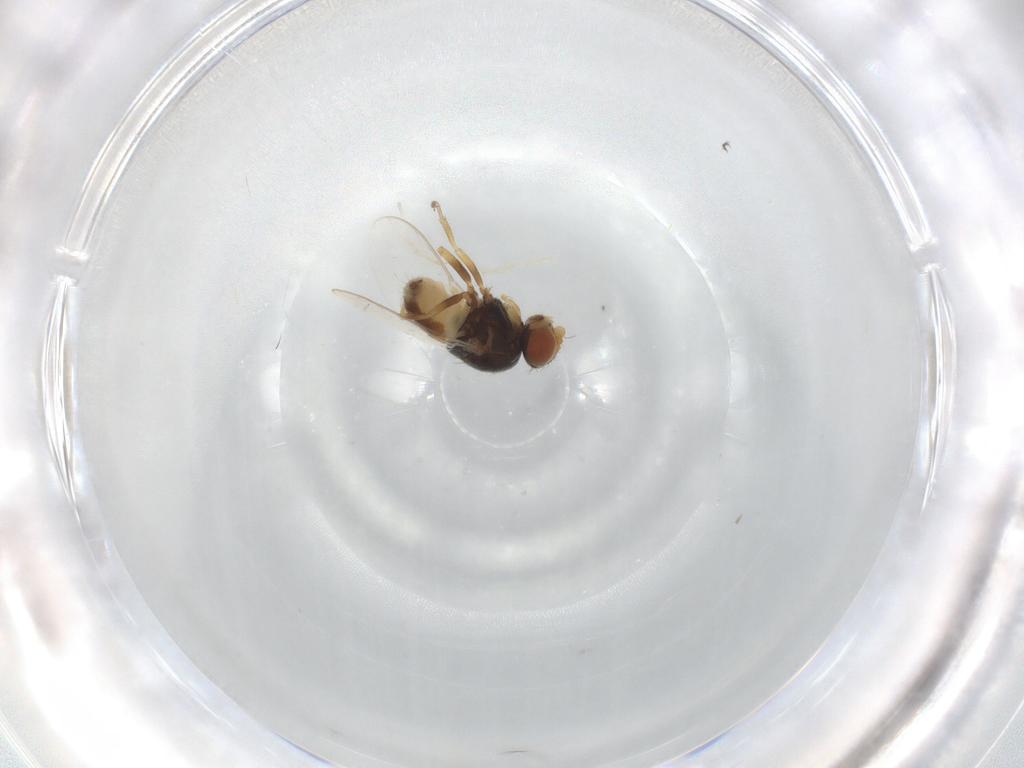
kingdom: Animalia
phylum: Arthropoda
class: Insecta
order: Diptera
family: Chloropidae
